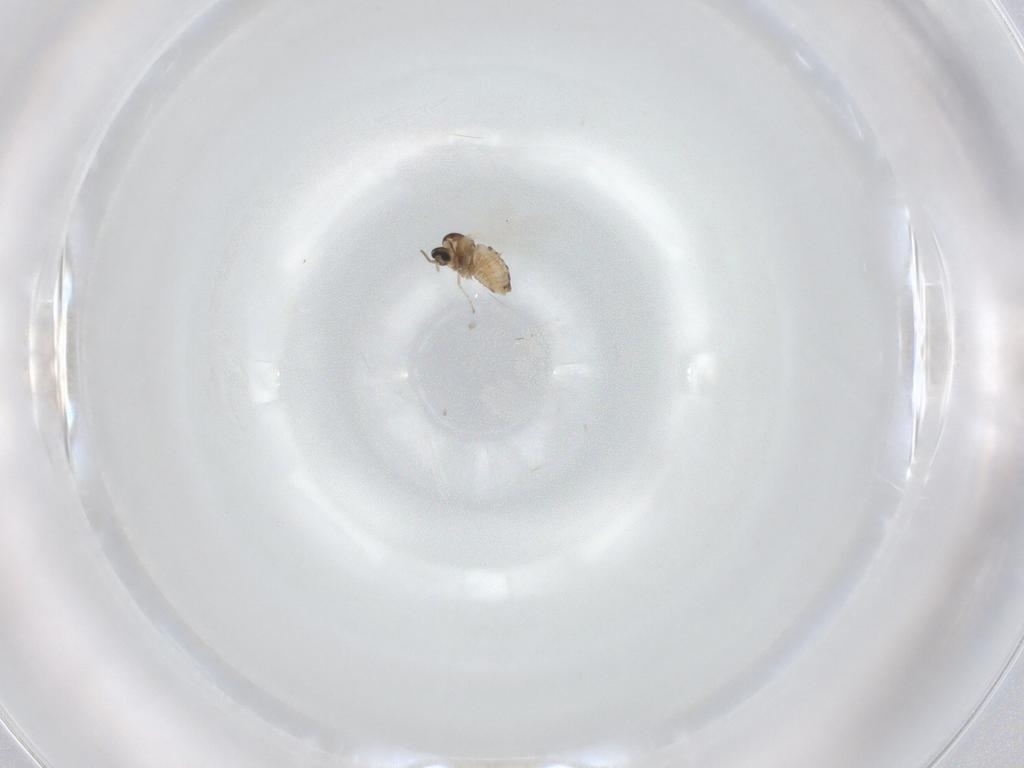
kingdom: Animalia
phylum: Arthropoda
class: Insecta
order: Diptera
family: Cecidomyiidae
